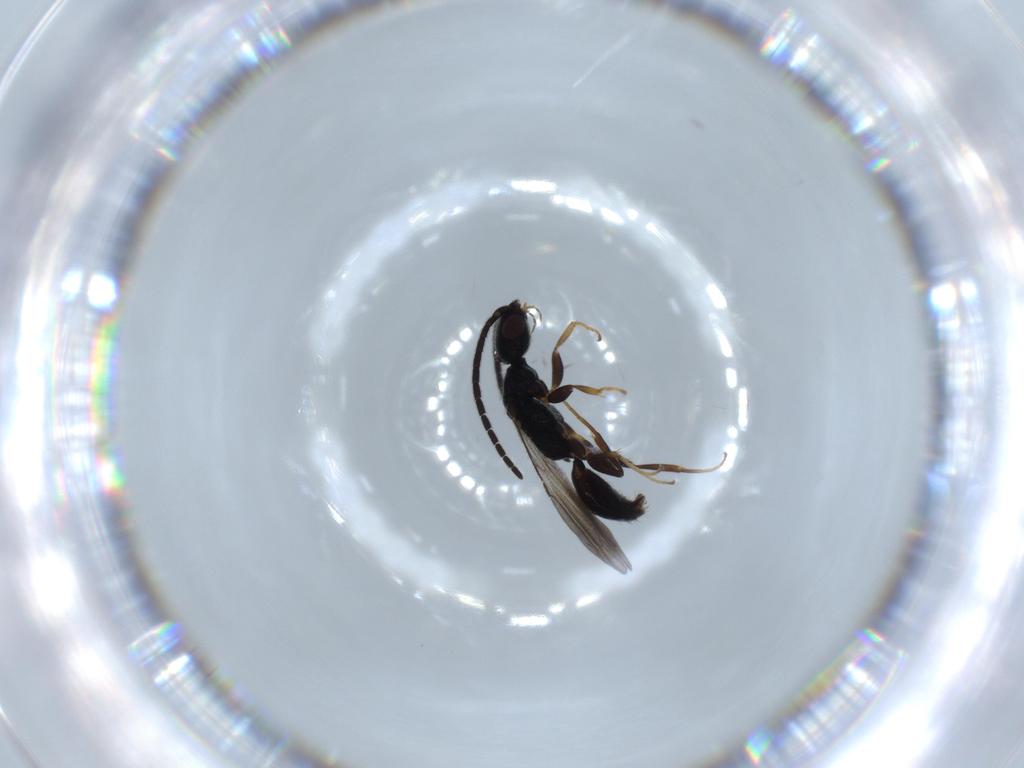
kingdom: Animalia
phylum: Arthropoda
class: Insecta
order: Hymenoptera
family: Bethylidae
